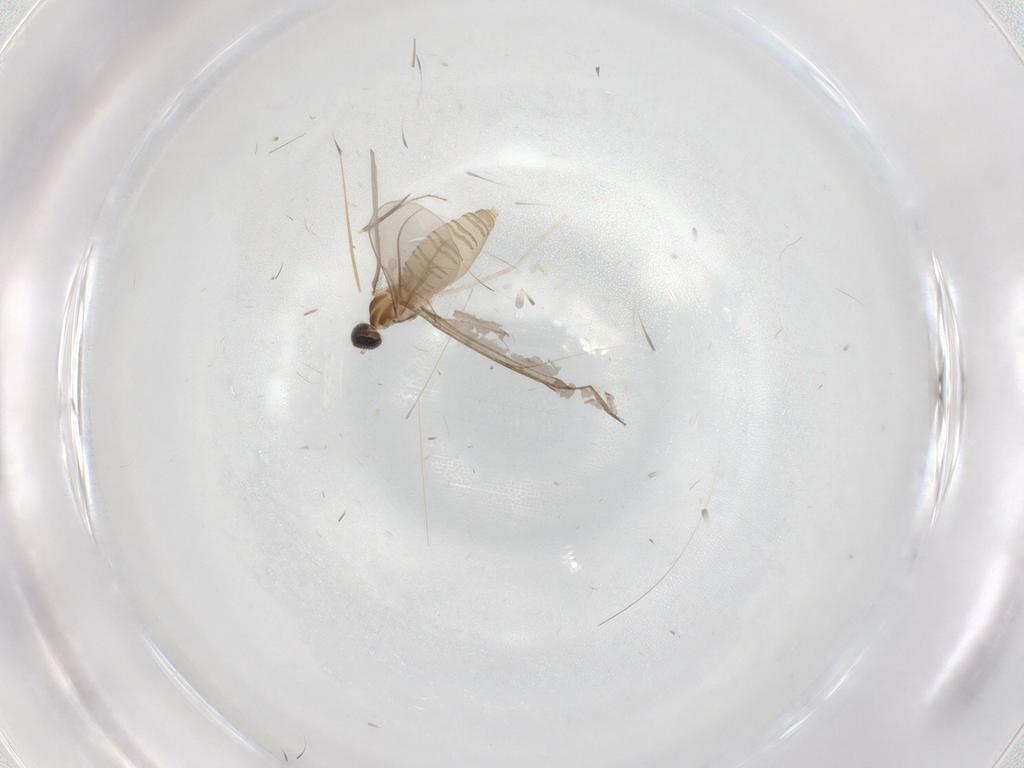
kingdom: Animalia
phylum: Arthropoda
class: Insecta
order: Diptera
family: Cecidomyiidae
